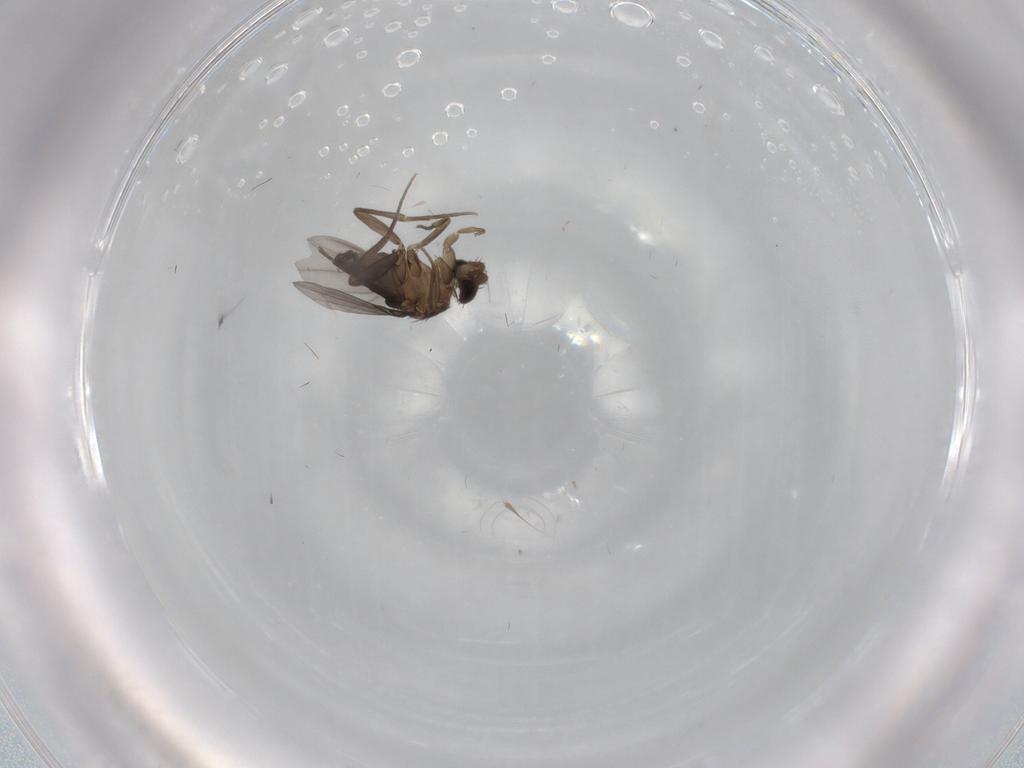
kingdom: Animalia
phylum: Arthropoda
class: Insecta
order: Diptera
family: Phoridae
